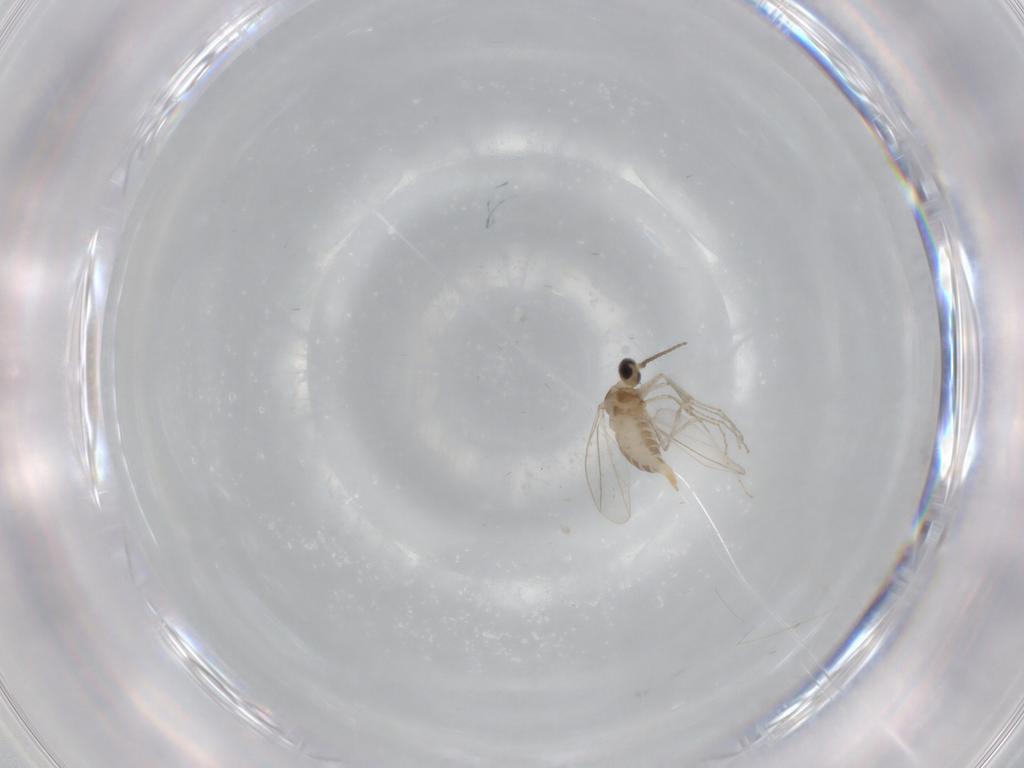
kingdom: Animalia
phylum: Arthropoda
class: Insecta
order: Diptera
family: Cecidomyiidae
